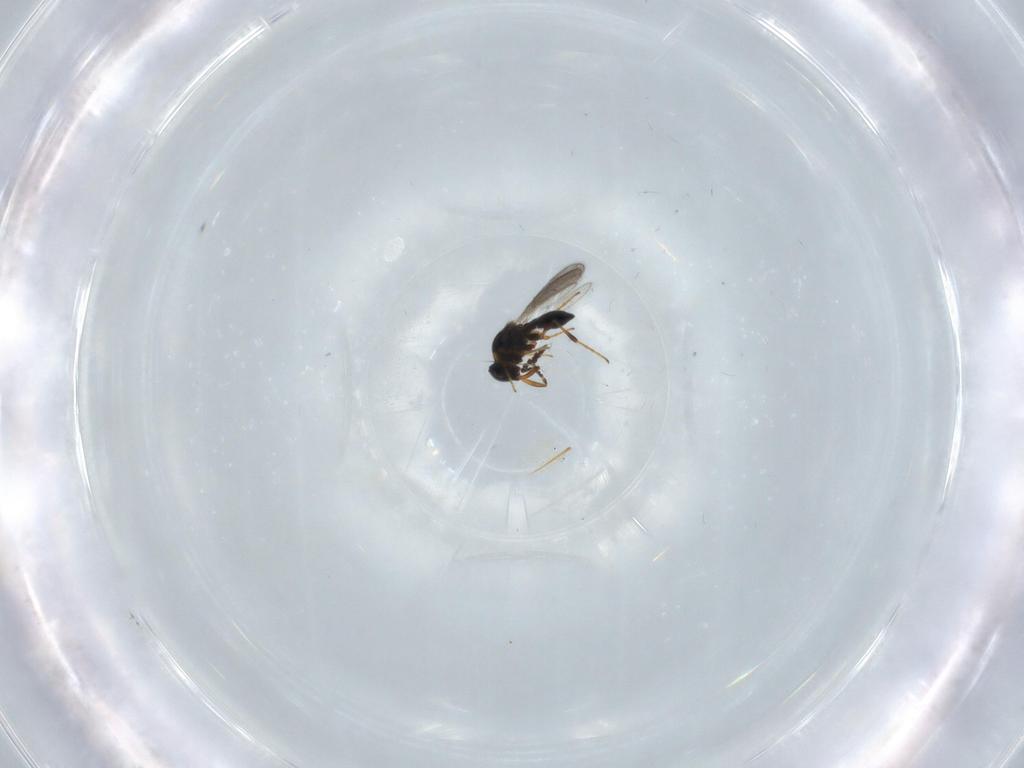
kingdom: Animalia
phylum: Arthropoda
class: Insecta
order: Hymenoptera
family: Platygastridae
